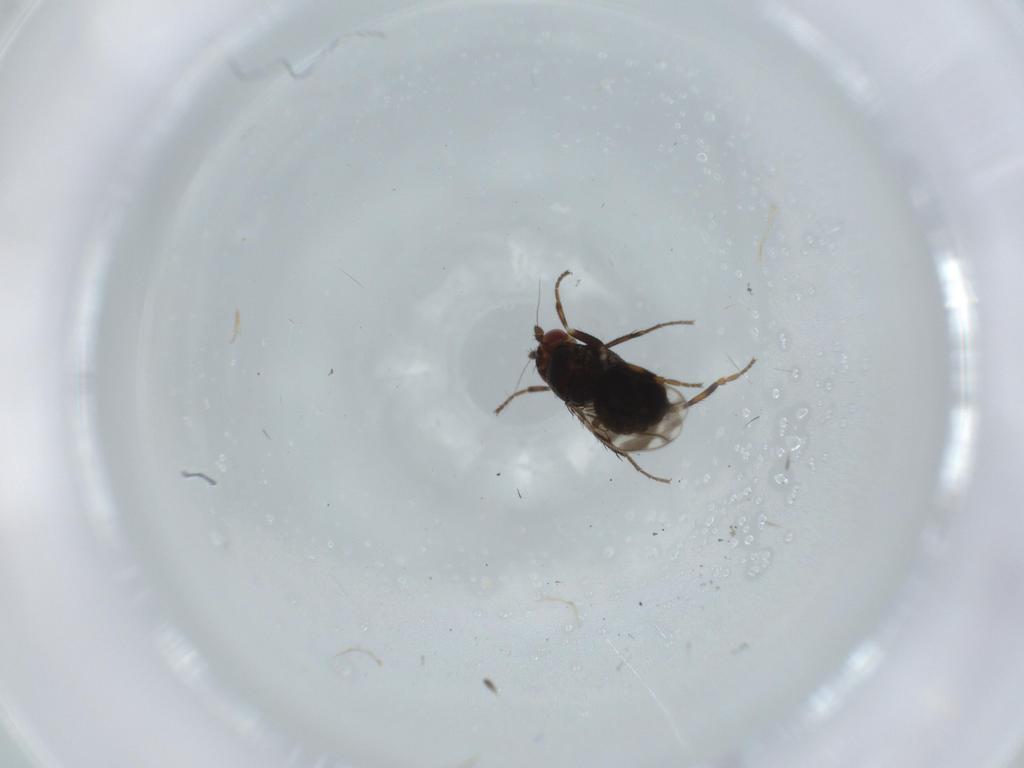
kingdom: Animalia
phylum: Arthropoda
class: Insecta
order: Diptera
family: Sphaeroceridae
